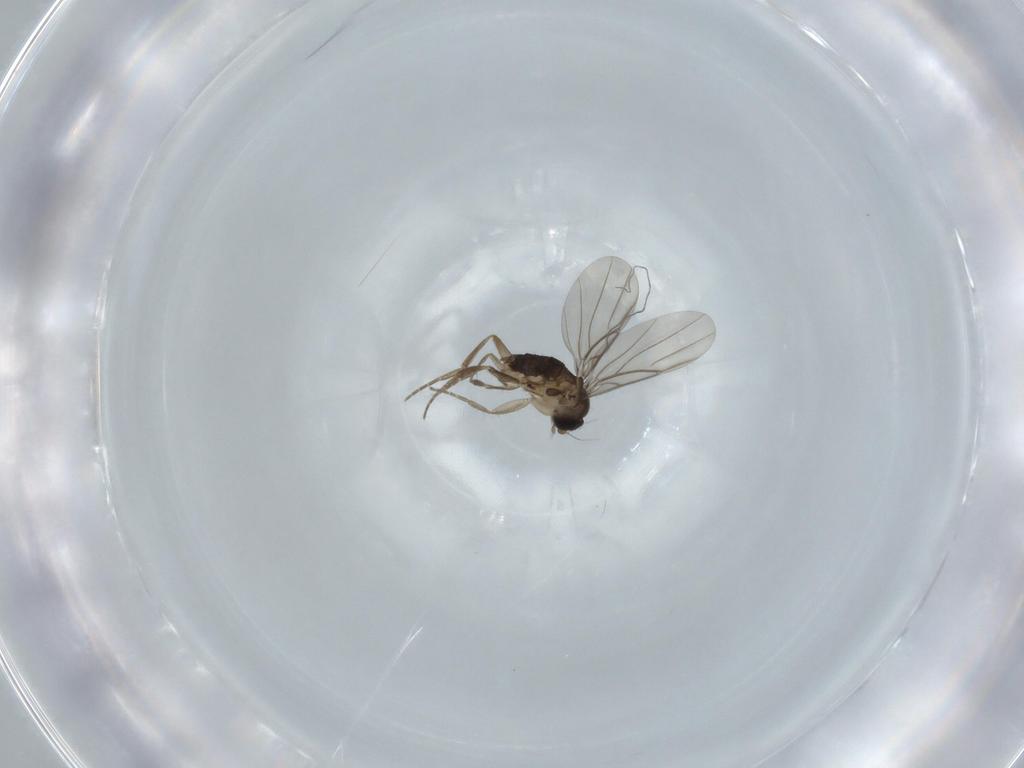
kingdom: Animalia
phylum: Arthropoda
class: Insecta
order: Diptera
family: Phoridae
